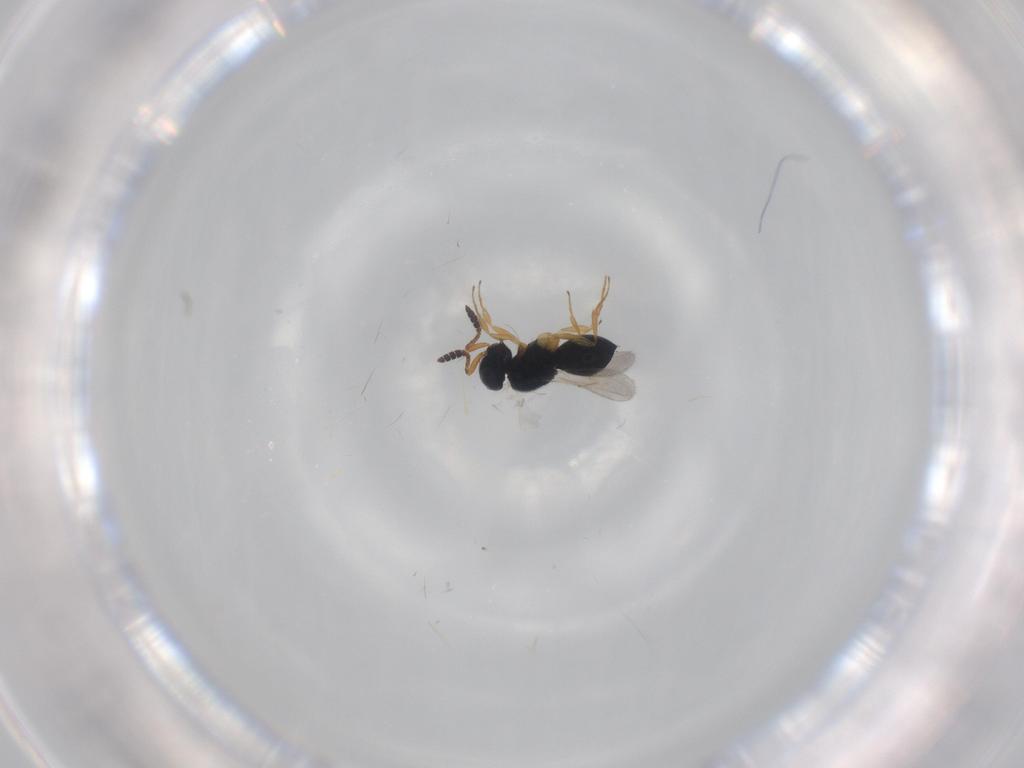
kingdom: Animalia
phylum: Arthropoda
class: Insecta
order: Hymenoptera
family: Scelionidae
